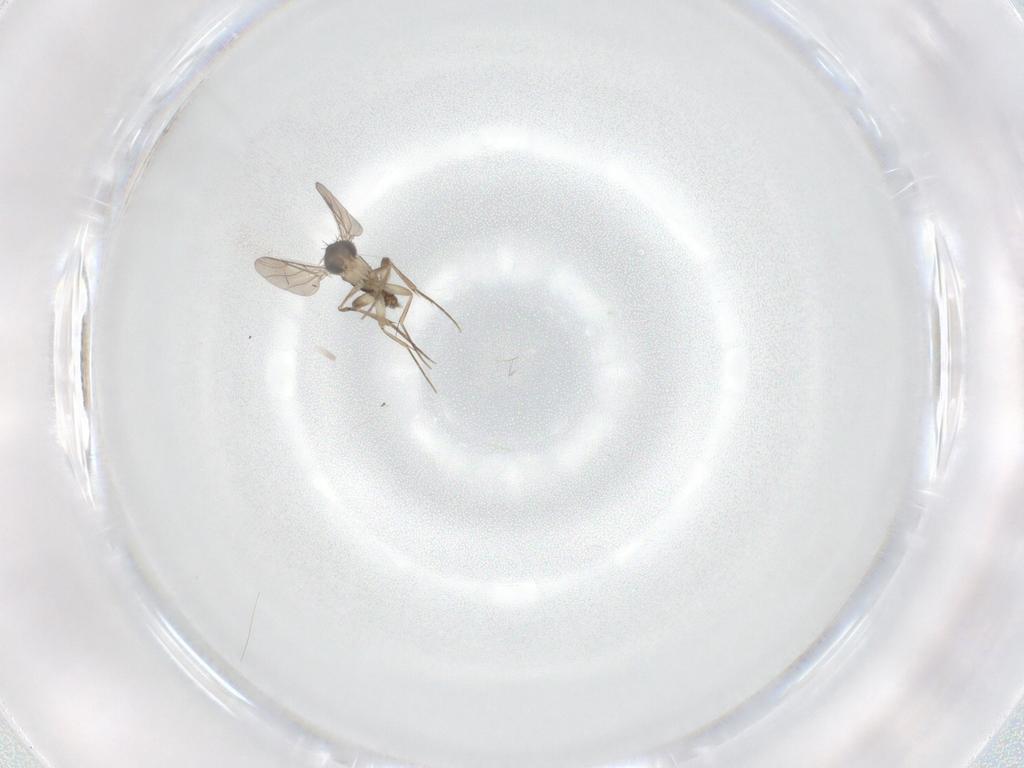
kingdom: Animalia
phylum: Arthropoda
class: Insecta
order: Diptera
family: Phoridae
